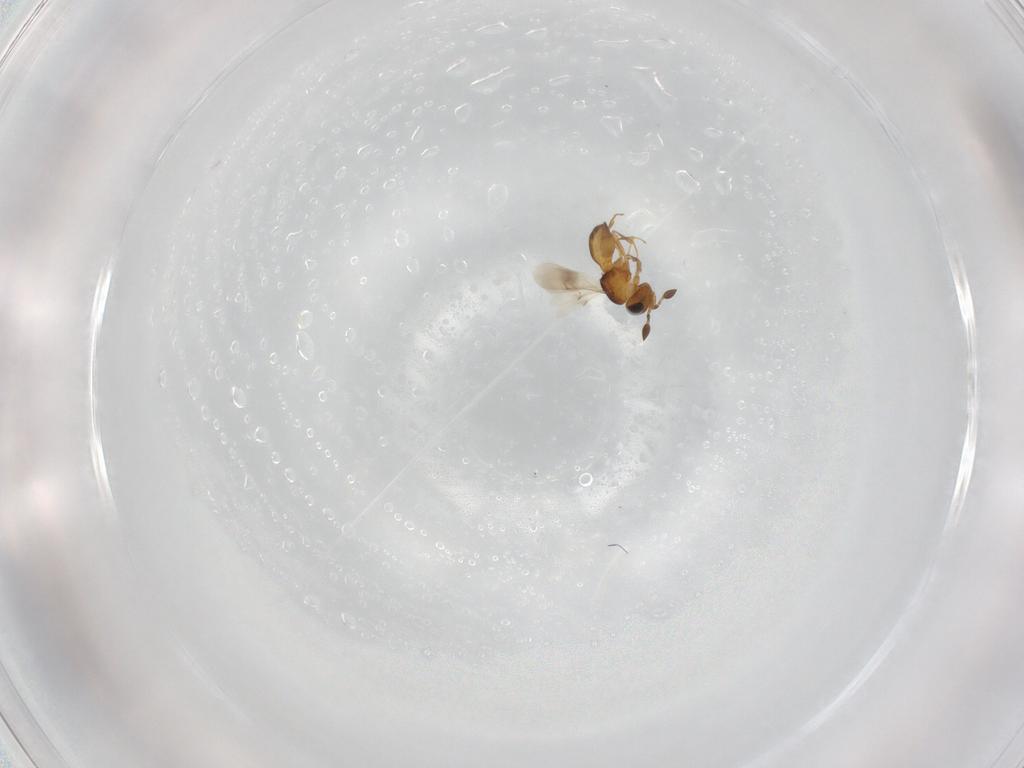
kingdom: Animalia
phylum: Arthropoda
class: Insecta
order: Hymenoptera
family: Scelionidae
